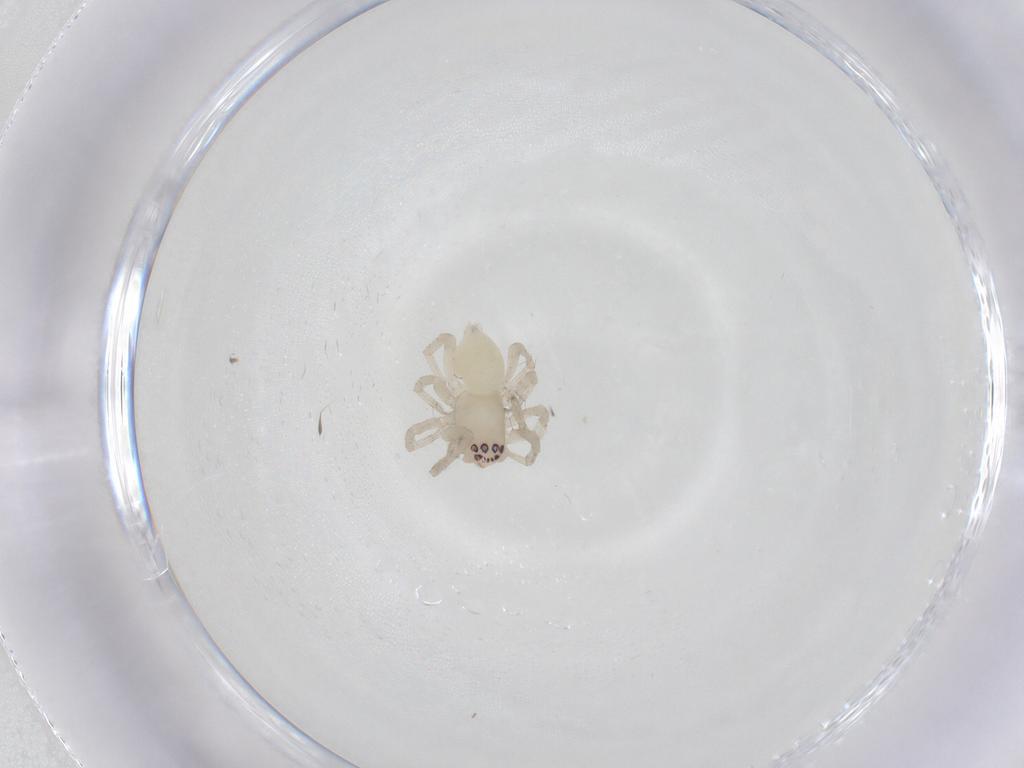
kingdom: Animalia
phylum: Arthropoda
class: Arachnida
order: Araneae
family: Anyphaenidae
